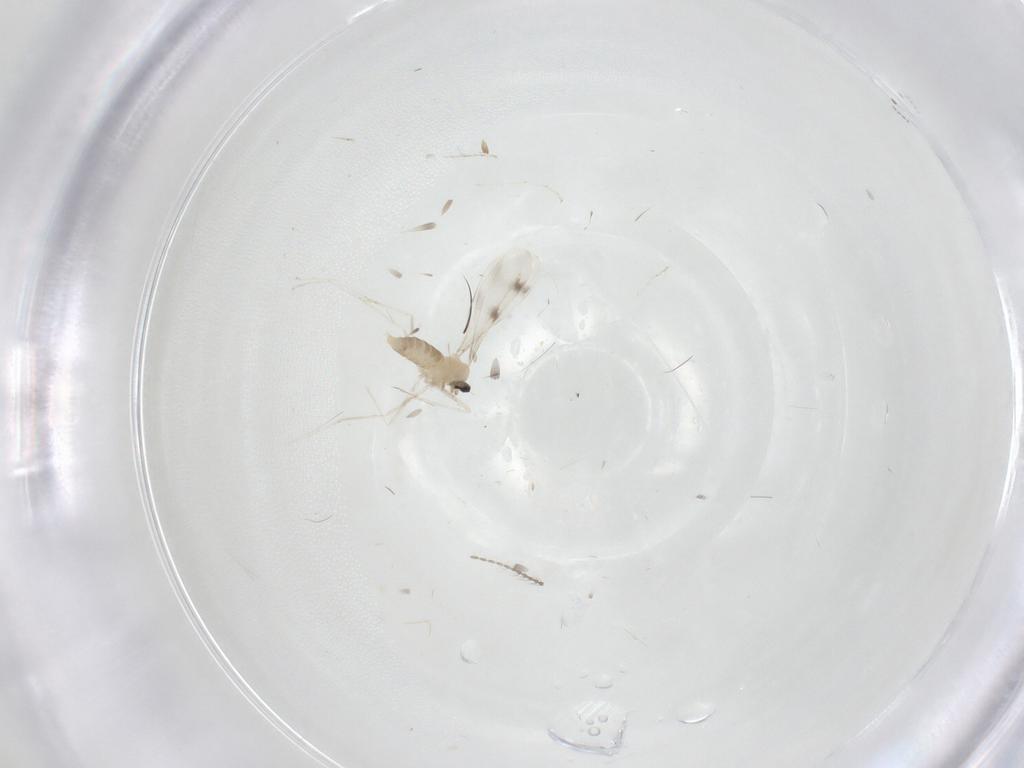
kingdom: Animalia
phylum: Arthropoda
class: Insecta
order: Diptera
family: Cecidomyiidae
